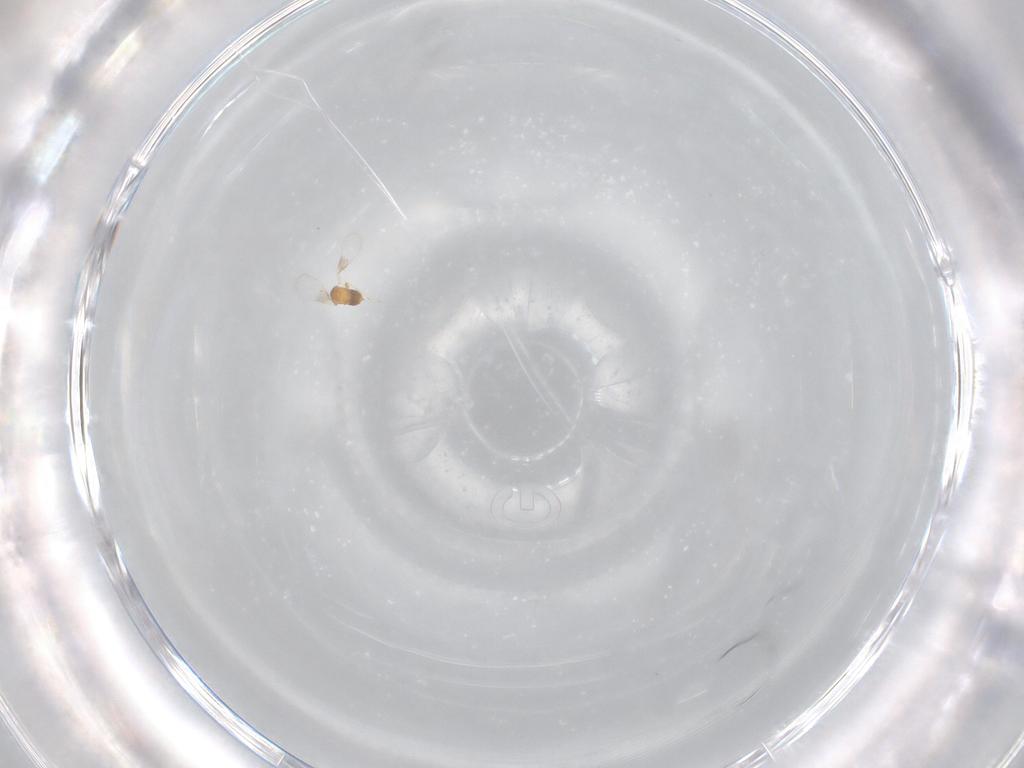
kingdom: Animalia
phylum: Arthropoda
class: Insecta
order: Hymenoptera
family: Trichogrammatidae
